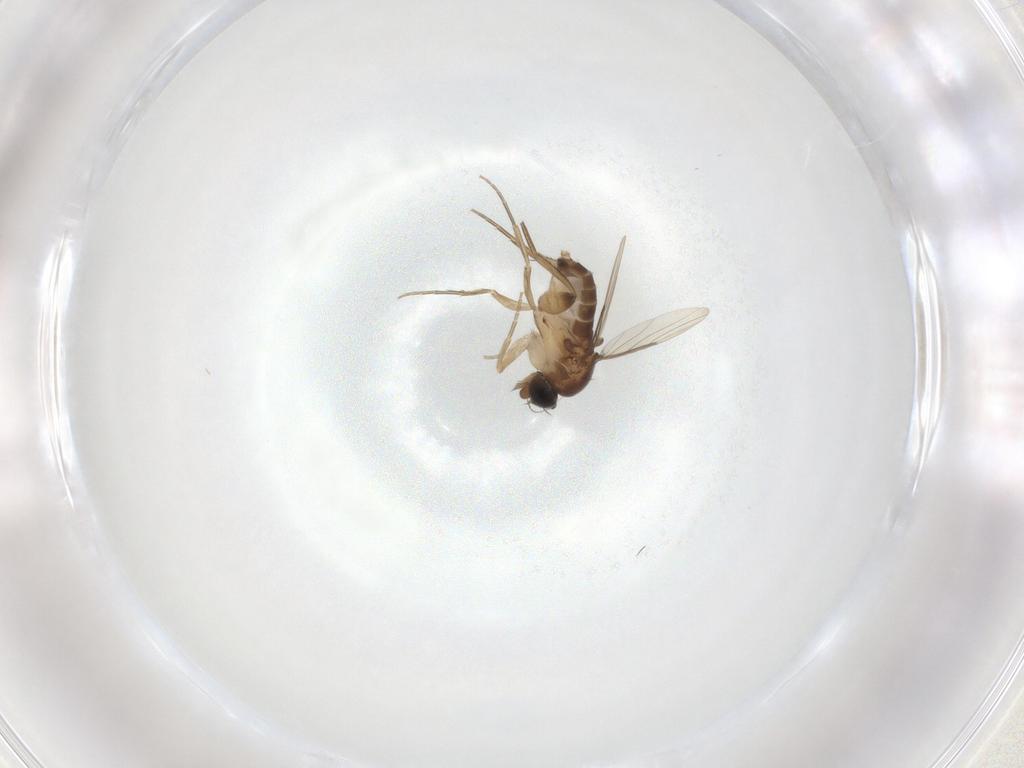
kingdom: Animalia
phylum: Arthropoda
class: Insecta
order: Diptera
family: Phoridae
